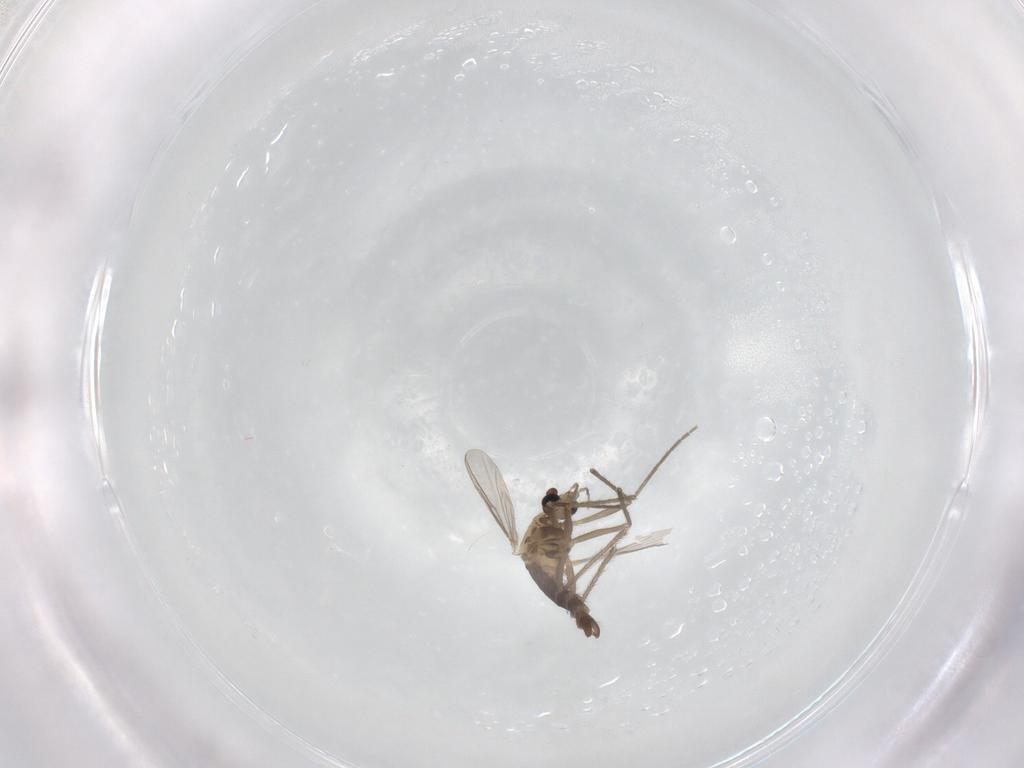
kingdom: Animalia
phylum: Arthropoda
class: Insecta
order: Diptera
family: Chironomidae
